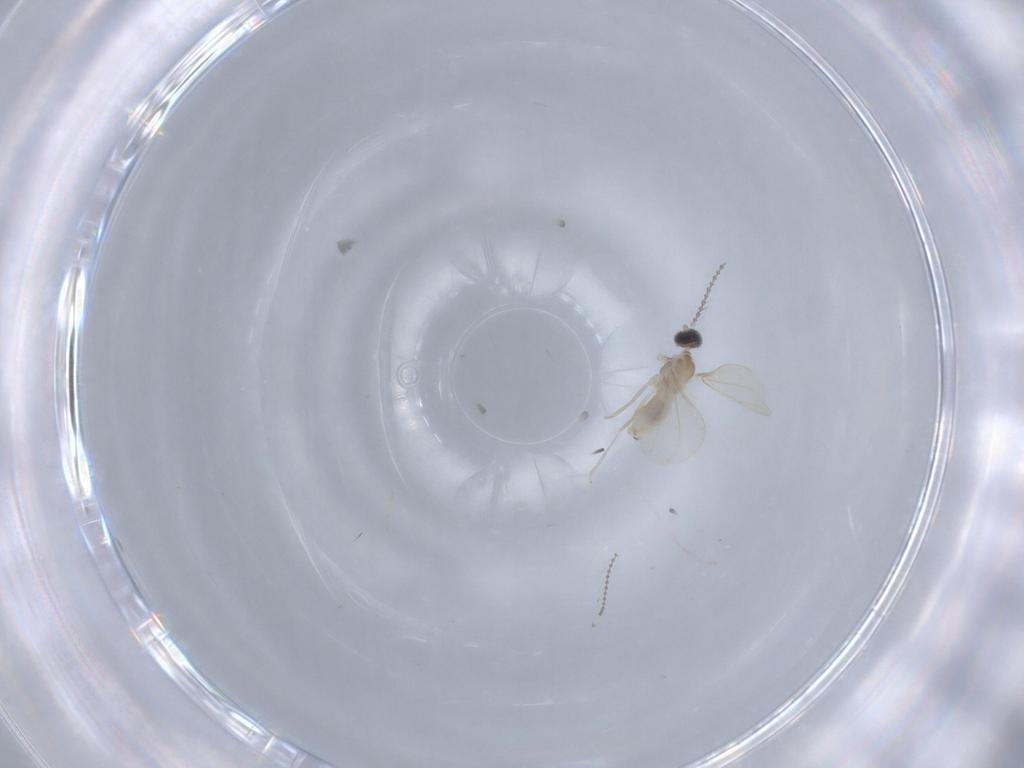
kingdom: Animalia
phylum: Arthropoda
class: Insecta
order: Diptera
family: Cecidomyiidae
